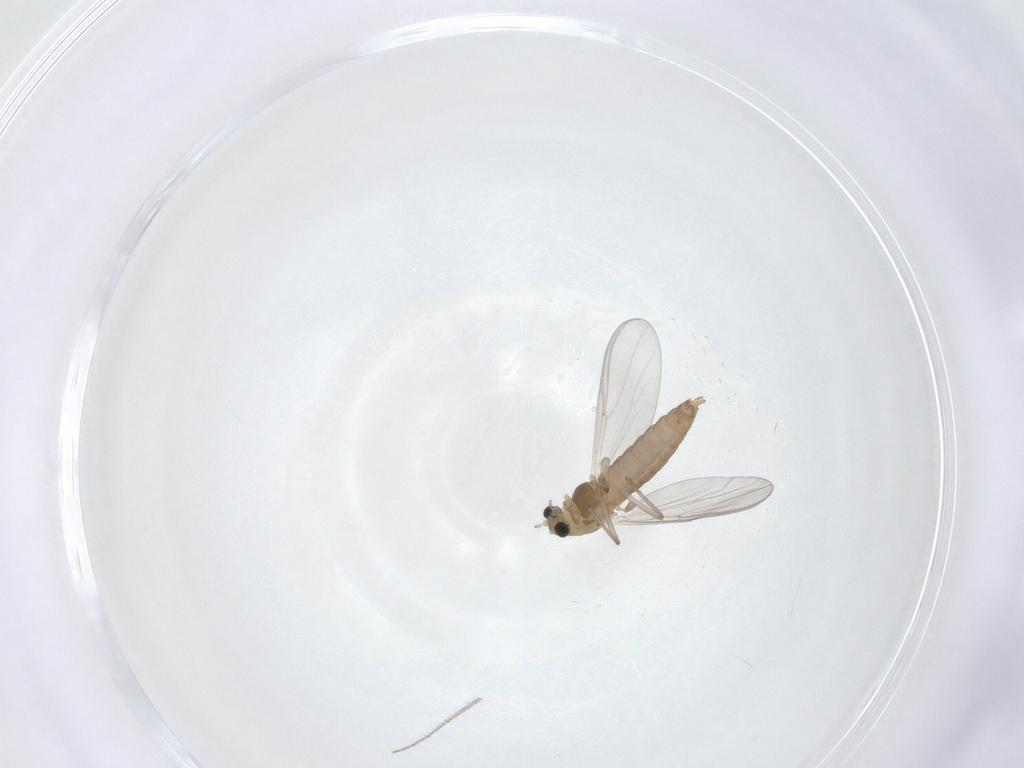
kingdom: Animalia
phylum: Arthropoda
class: Insecta
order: Diptera
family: Chironomidae
